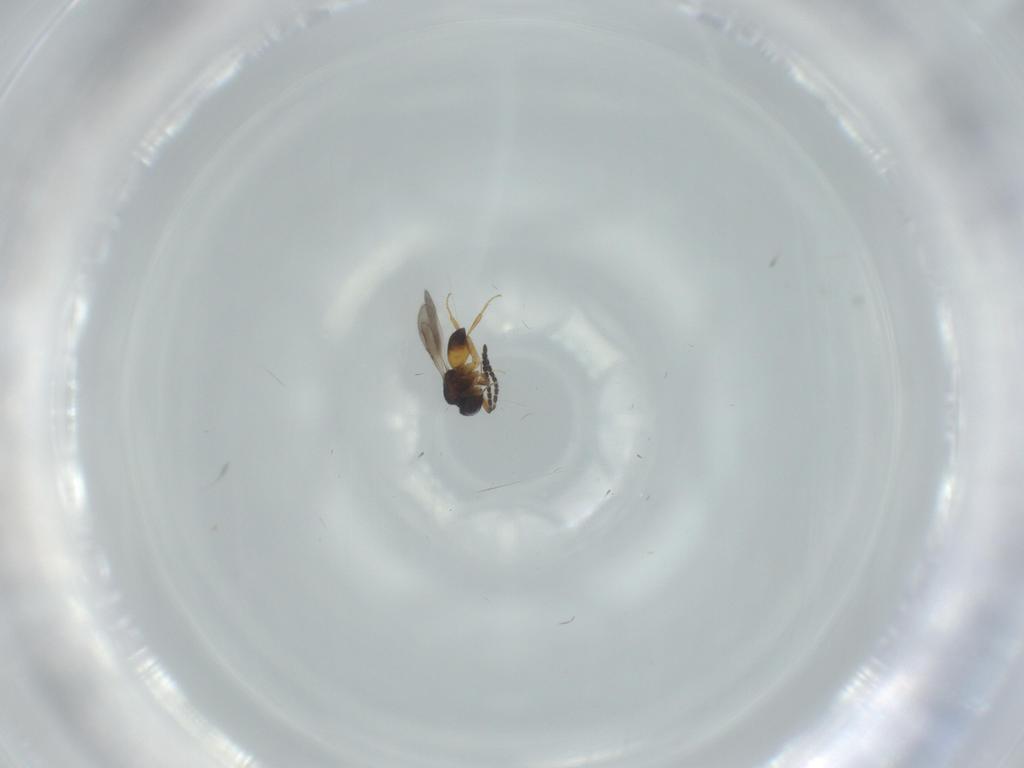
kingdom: Animalia
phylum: Arthropoda
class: Insecta
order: Hymenoptera
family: Ceraphronidae
